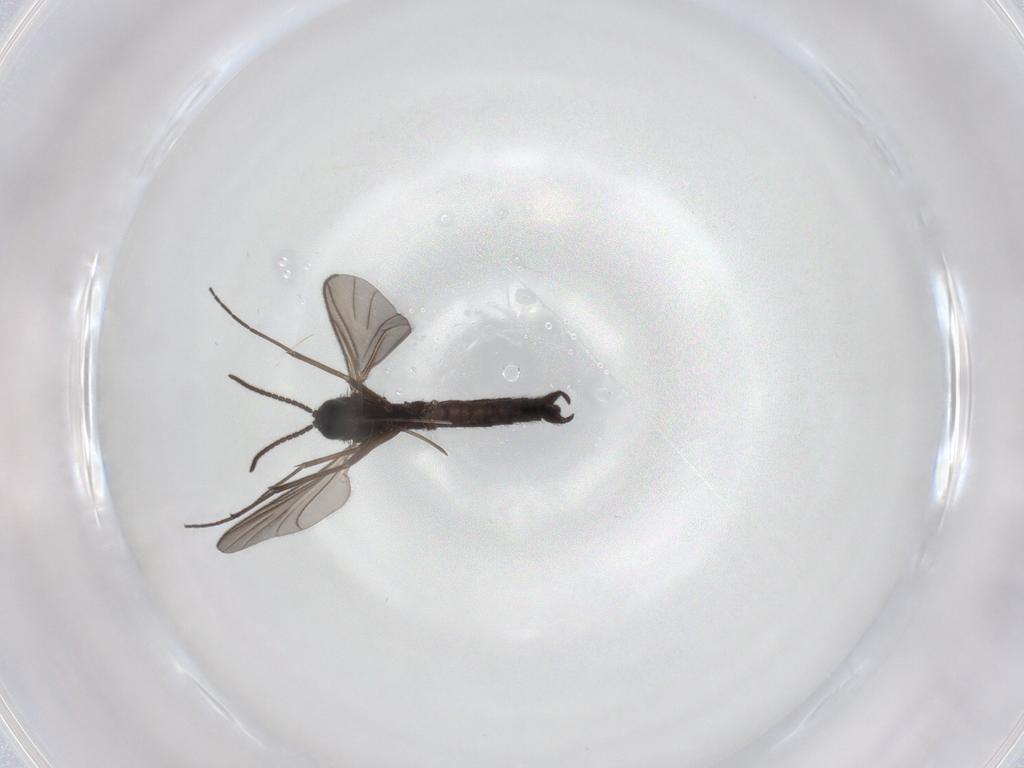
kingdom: Animalia
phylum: Arthropoda
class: Insecta
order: Diptera
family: Keroplatidae
